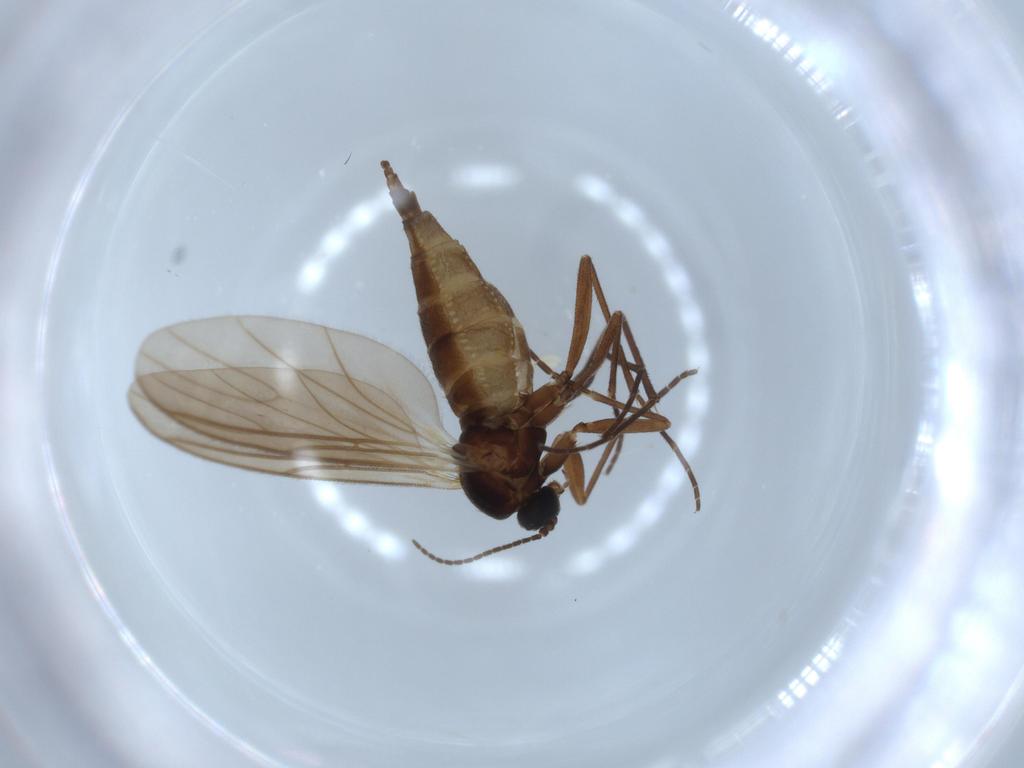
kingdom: Animalia
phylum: Arthropoda
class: Insecta
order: Diptera
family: Sciaridae
